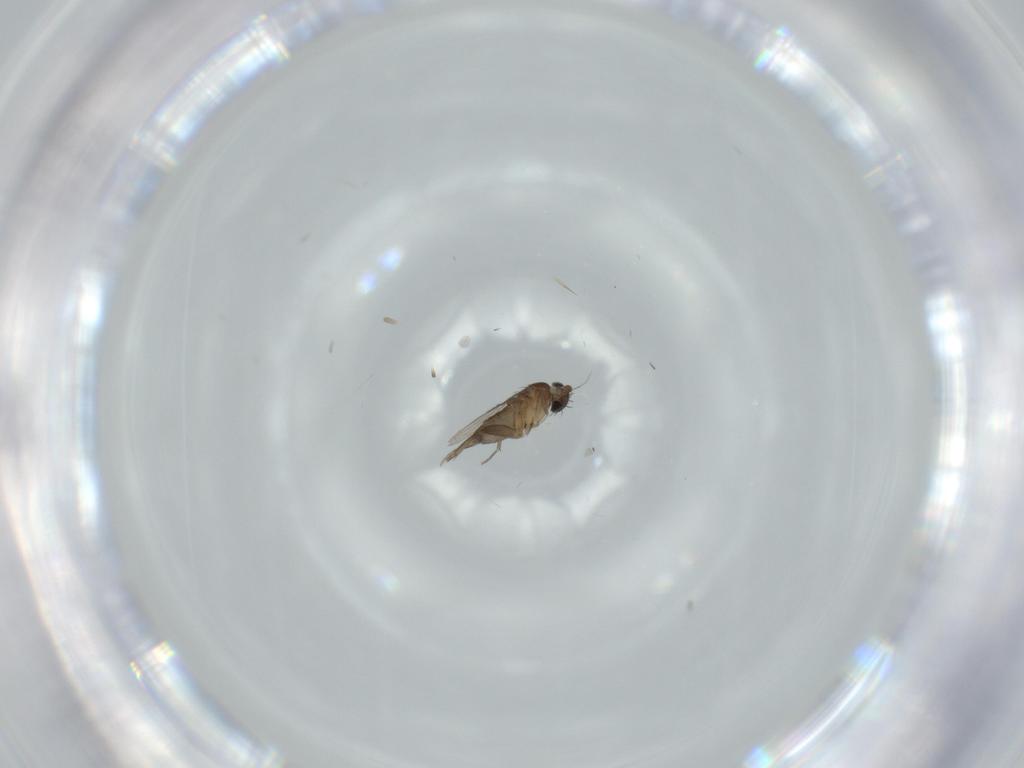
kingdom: Animalia
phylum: Arthropoda
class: Insecta
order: Diptera
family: Phoridae
